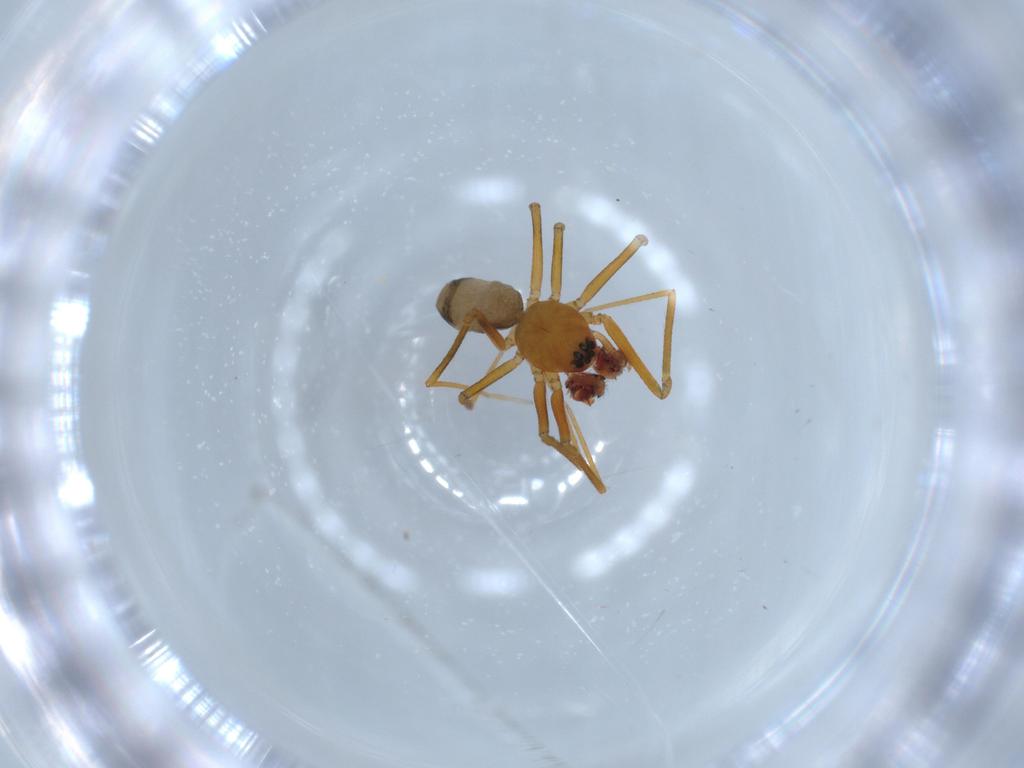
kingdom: Animalia
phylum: Arthropoda
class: Arachnida
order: Araneae
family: Linyphiidae
